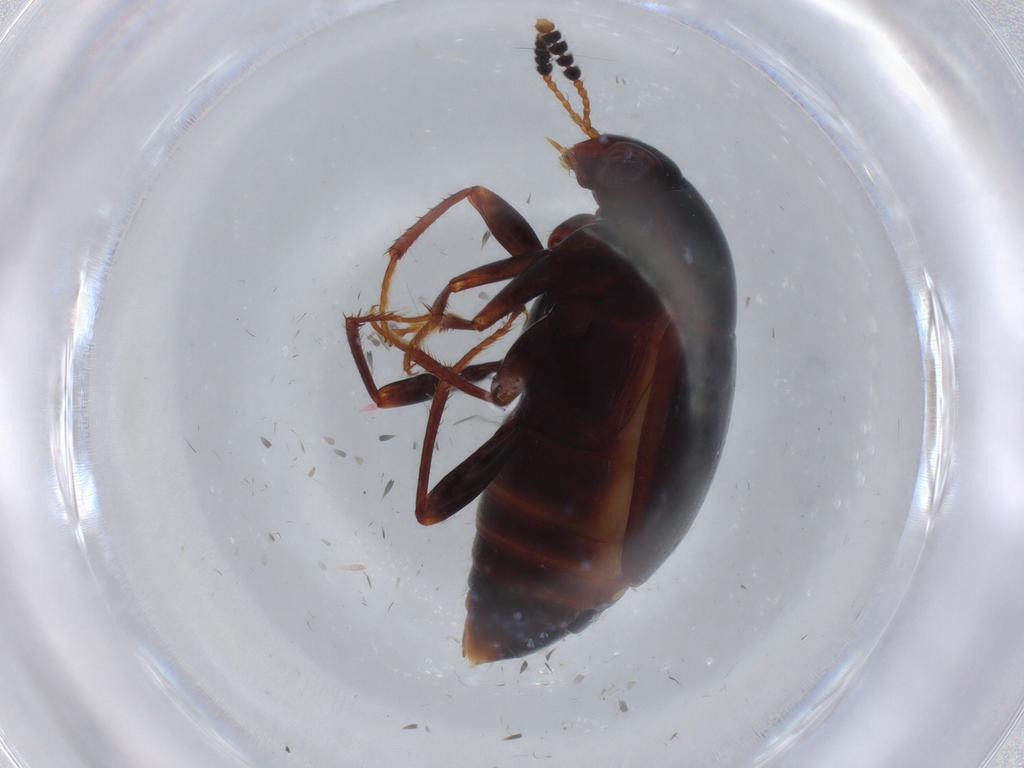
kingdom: Animalia
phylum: Arthropoda
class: Insecta
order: Coleoptera
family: Staphylinidae
